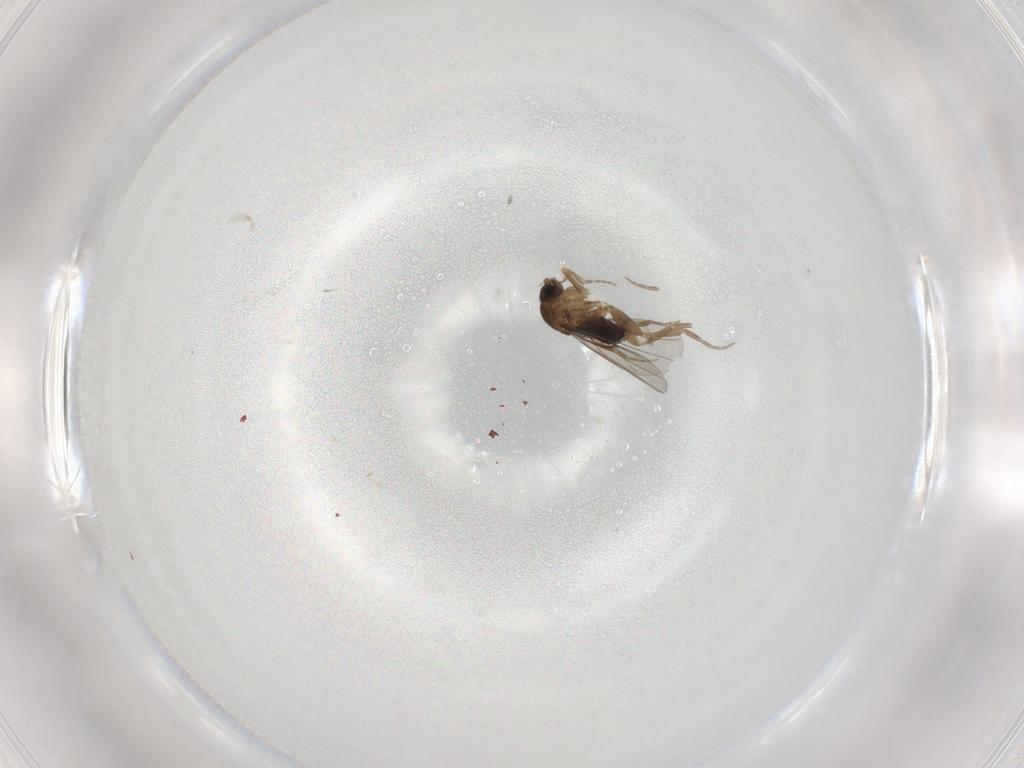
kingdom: Animalia
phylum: Arthropoda
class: Insecta
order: Diptera
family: Phoridae
